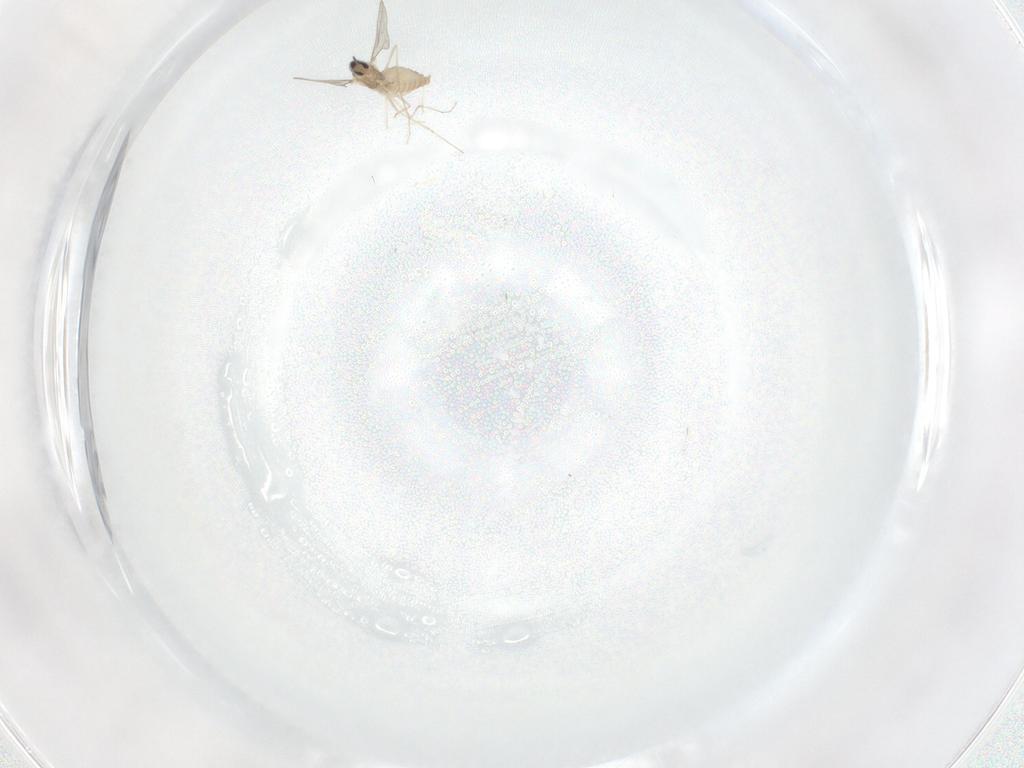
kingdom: Animalia
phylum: Arthropoda
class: Insecta
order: Diptera
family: Cecidomyiidae
